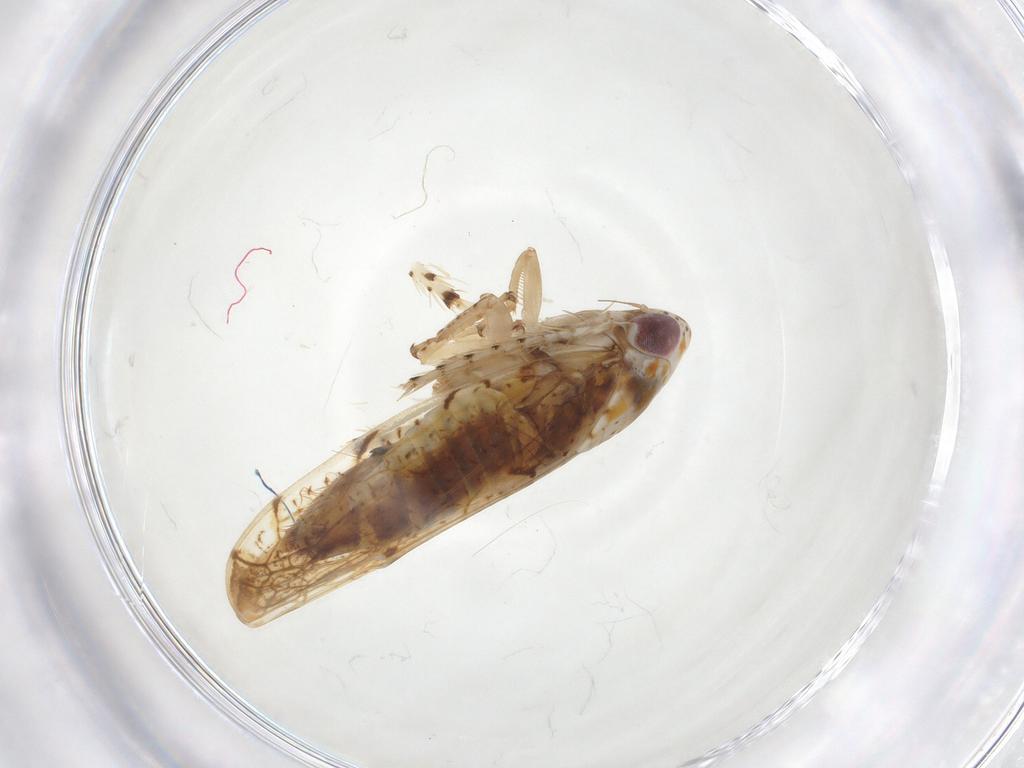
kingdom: Animalia
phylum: Arthropoda
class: Insecta
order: Hemiptera
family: Cicadellidae
